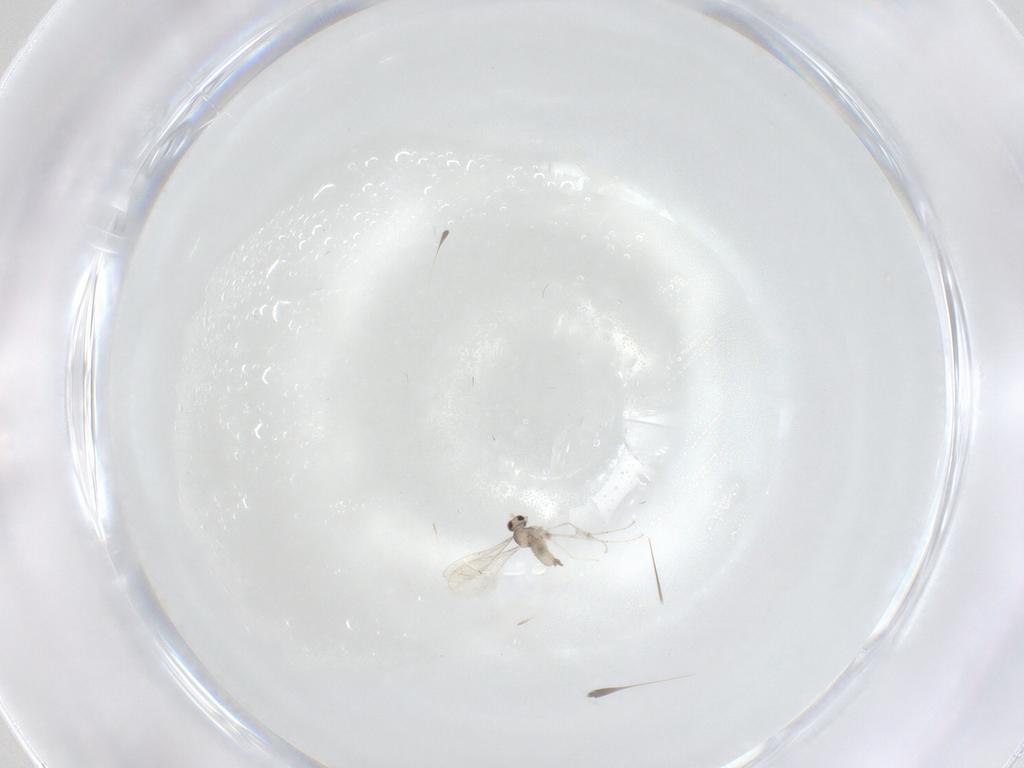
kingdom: Animalia
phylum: Arthropoda
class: Insecta
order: Diptera
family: Cecidomyiidae
